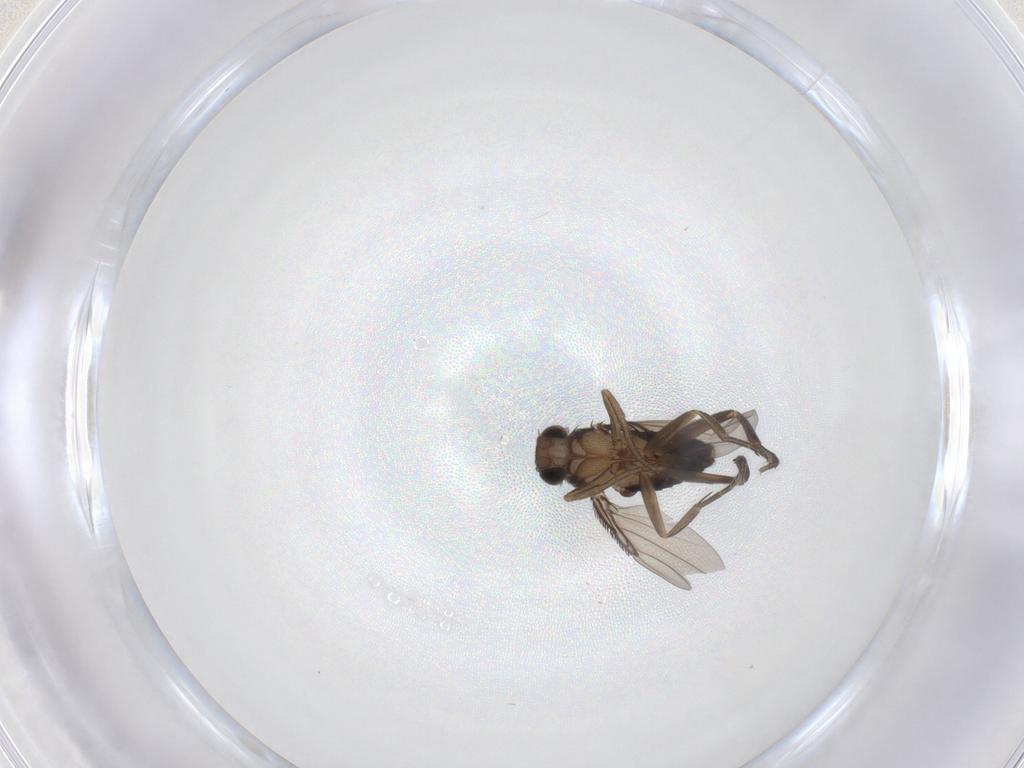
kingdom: Animalia
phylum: Arthropoda
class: Insecta
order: Diptera
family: Phoridae
